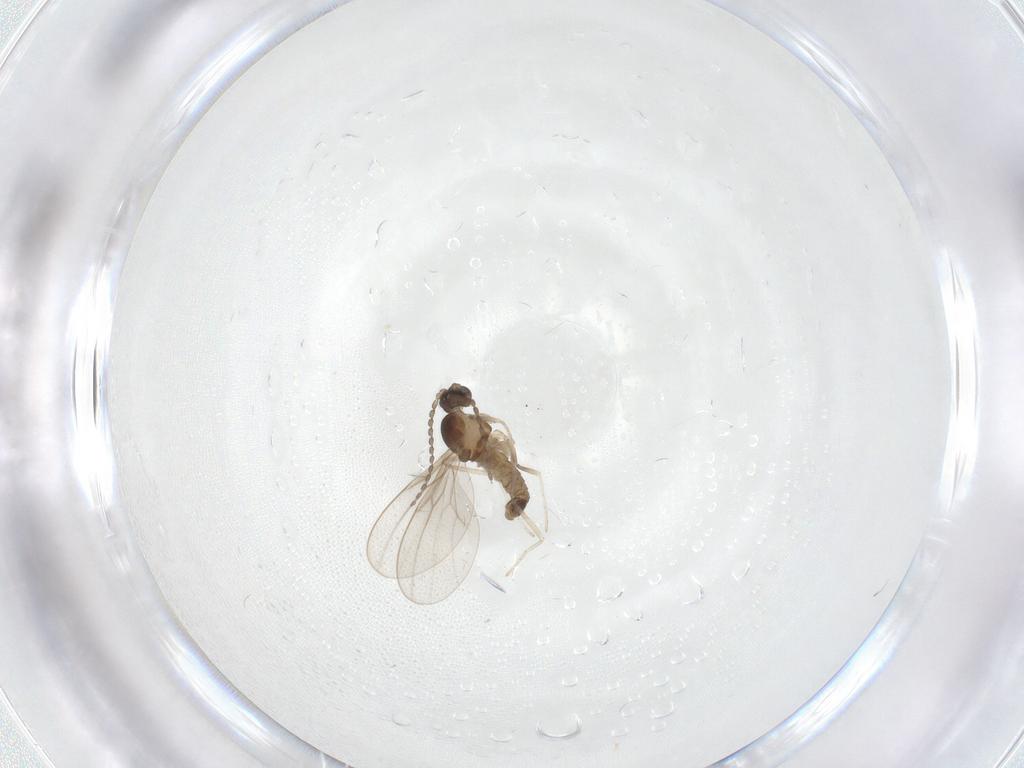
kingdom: Animalia
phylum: Arthropoda
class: Insecta
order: Diptera
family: Cecidomyiidae
